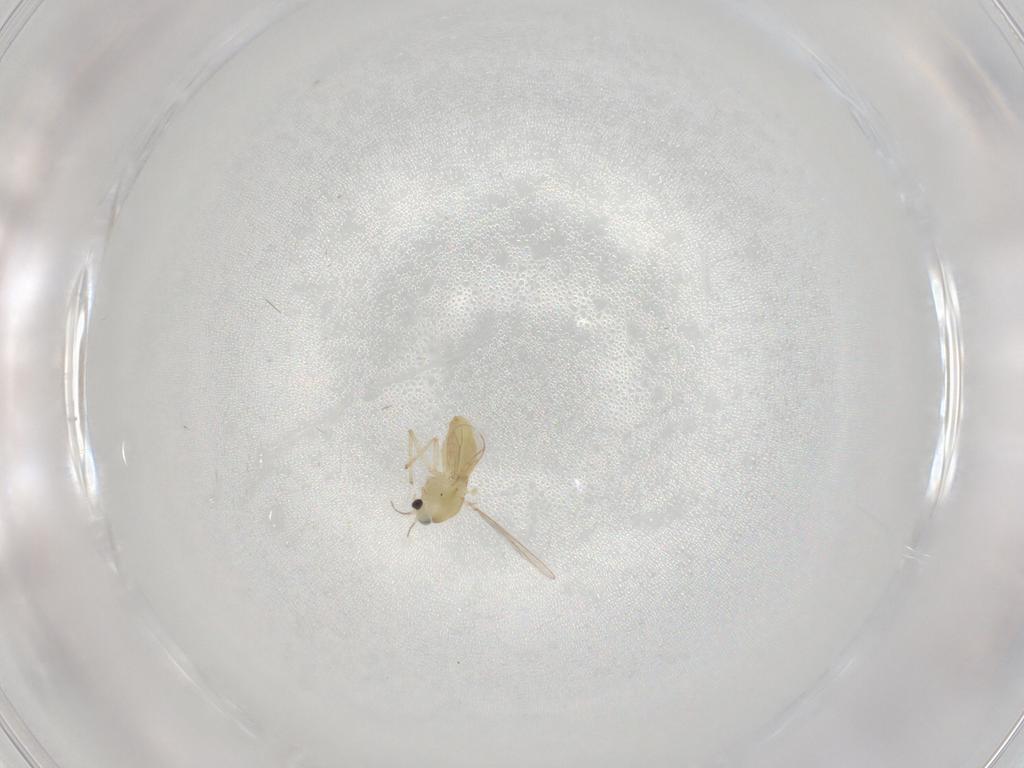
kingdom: Animalia
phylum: Arthropoda
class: Insecta
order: Diptera
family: Chironomidae
